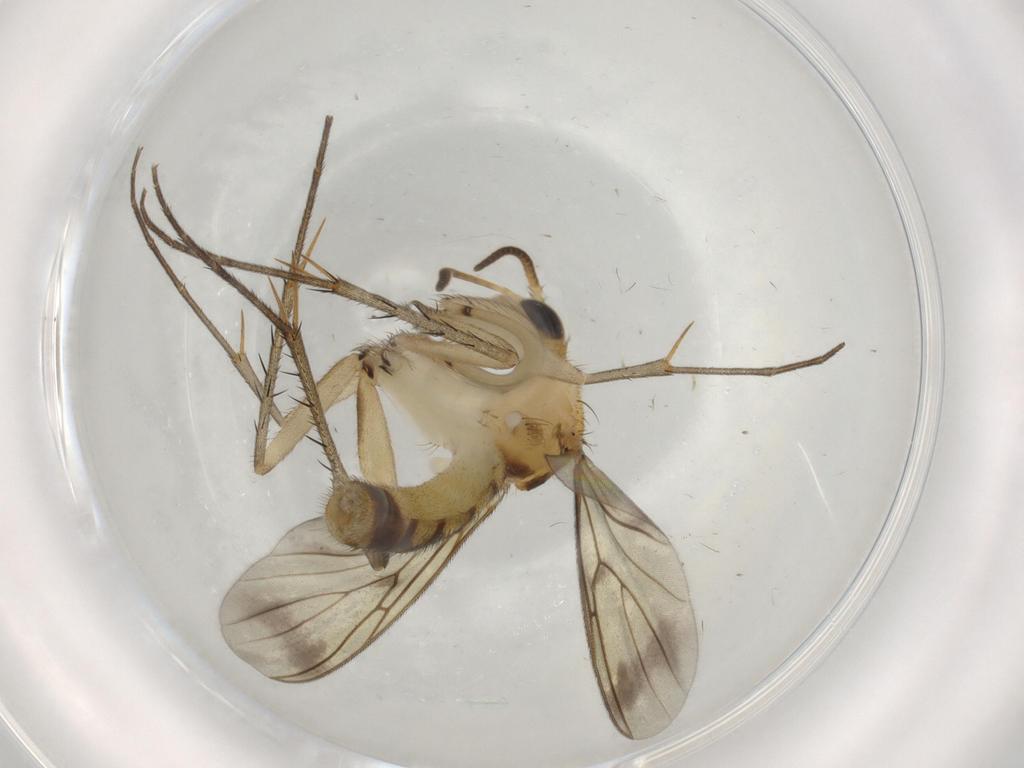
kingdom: Animalia
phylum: Arthropoda
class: Insecta
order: Diptera
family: Mycetophilidae
